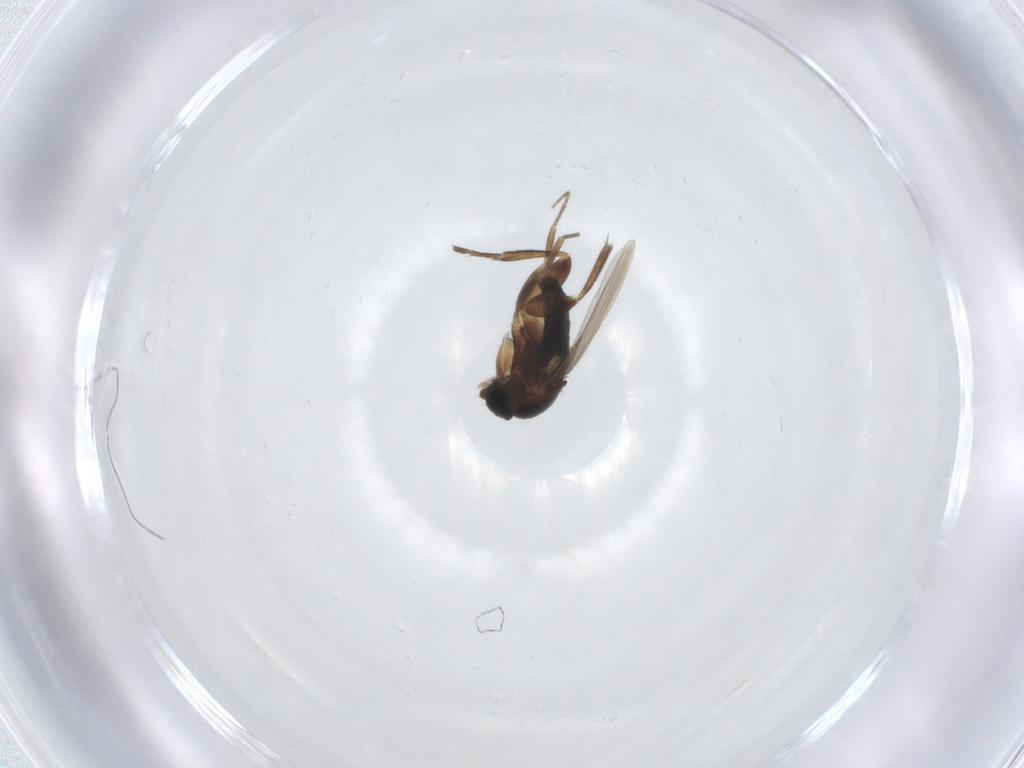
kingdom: Animalia
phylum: Arthropoda
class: Insecta
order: Diptera
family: Phoridae
